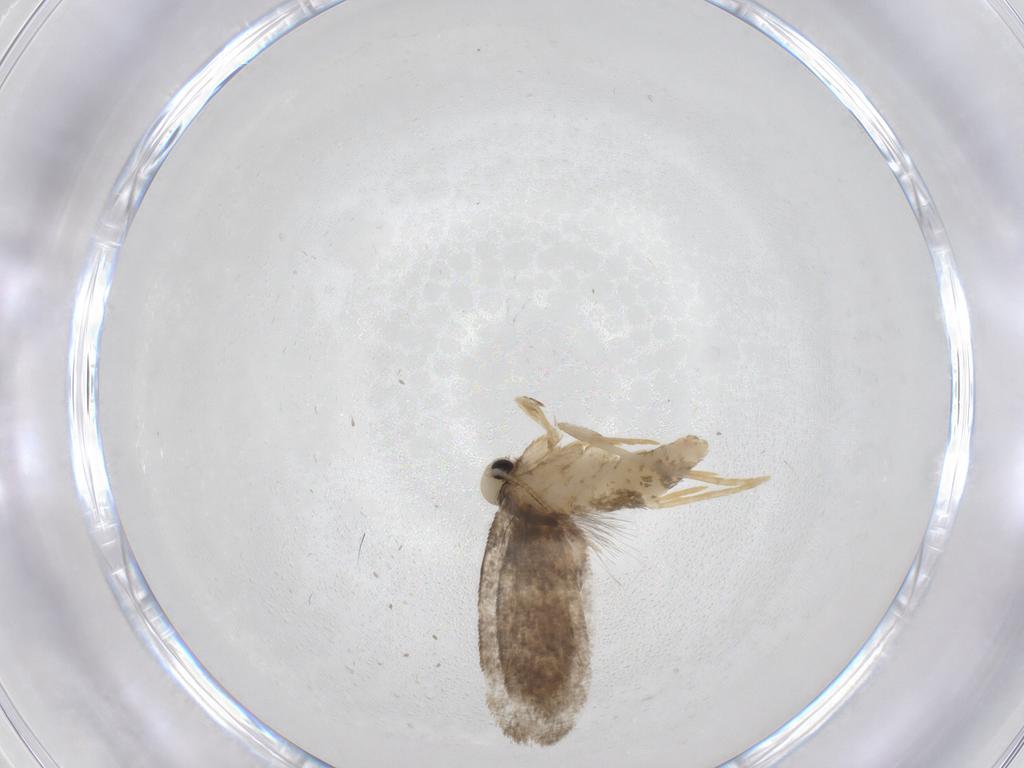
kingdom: Animalia
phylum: Arthropoda
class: Insecta
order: Lepidoptera
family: Psychidae
